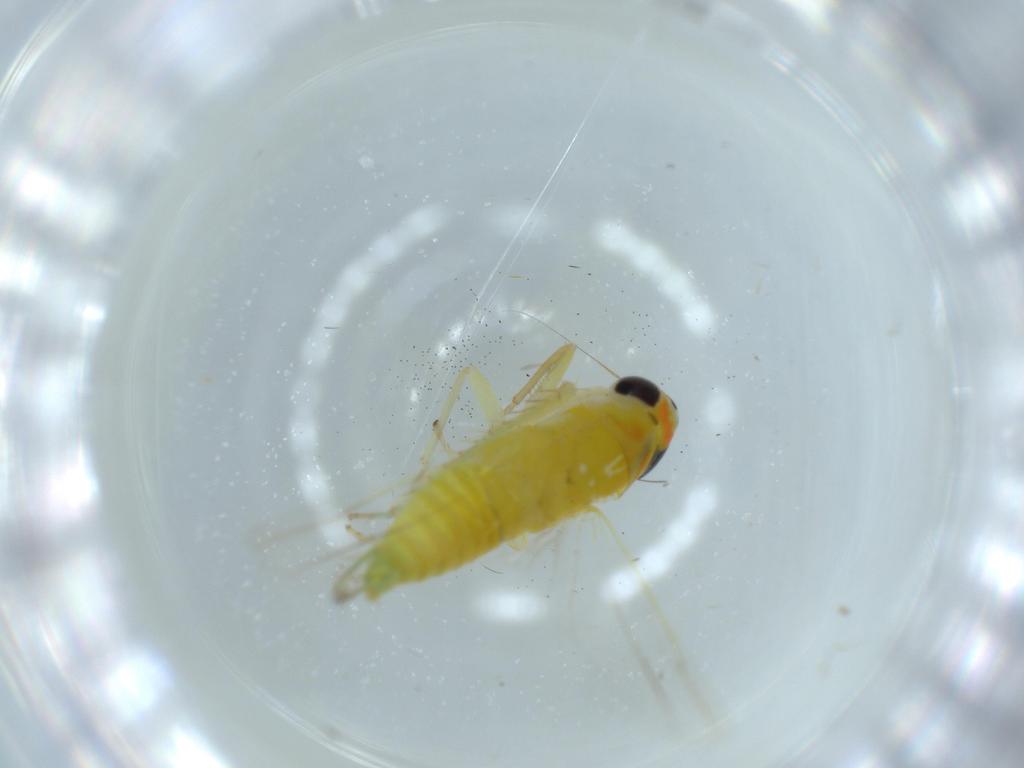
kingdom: Animalia
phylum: Arthropoda
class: Insecta
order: Hemiptera
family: Cicadellidae
